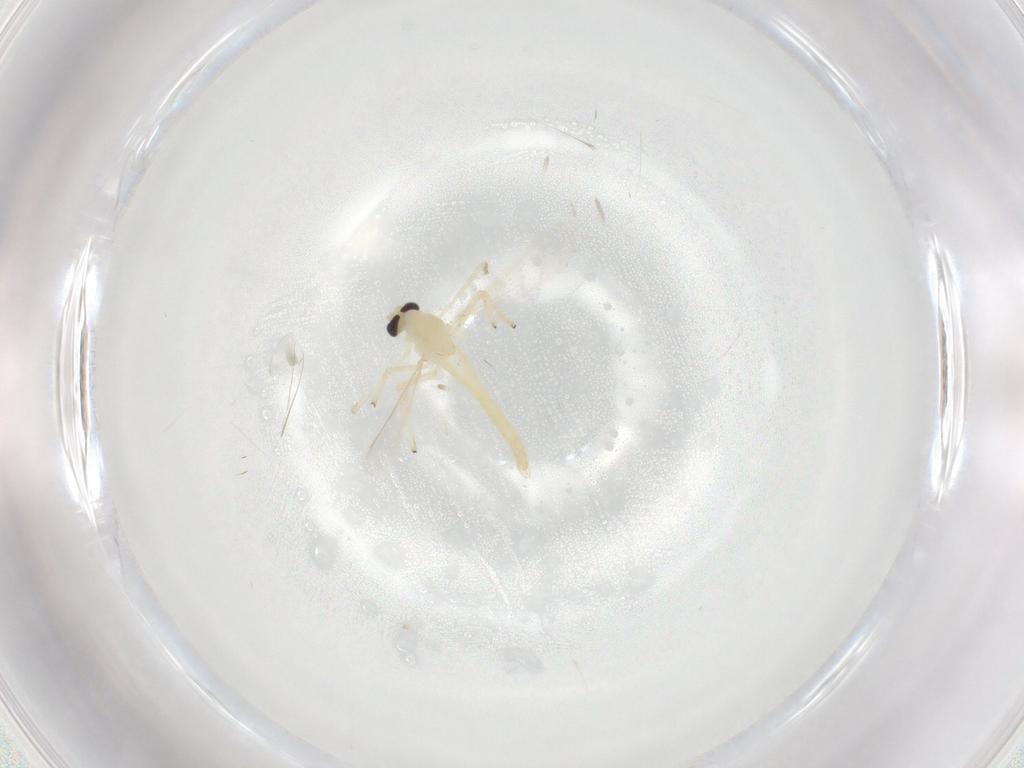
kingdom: Animalia
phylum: Arthropoda
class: Insecta
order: Diptera
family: Chironomidae
